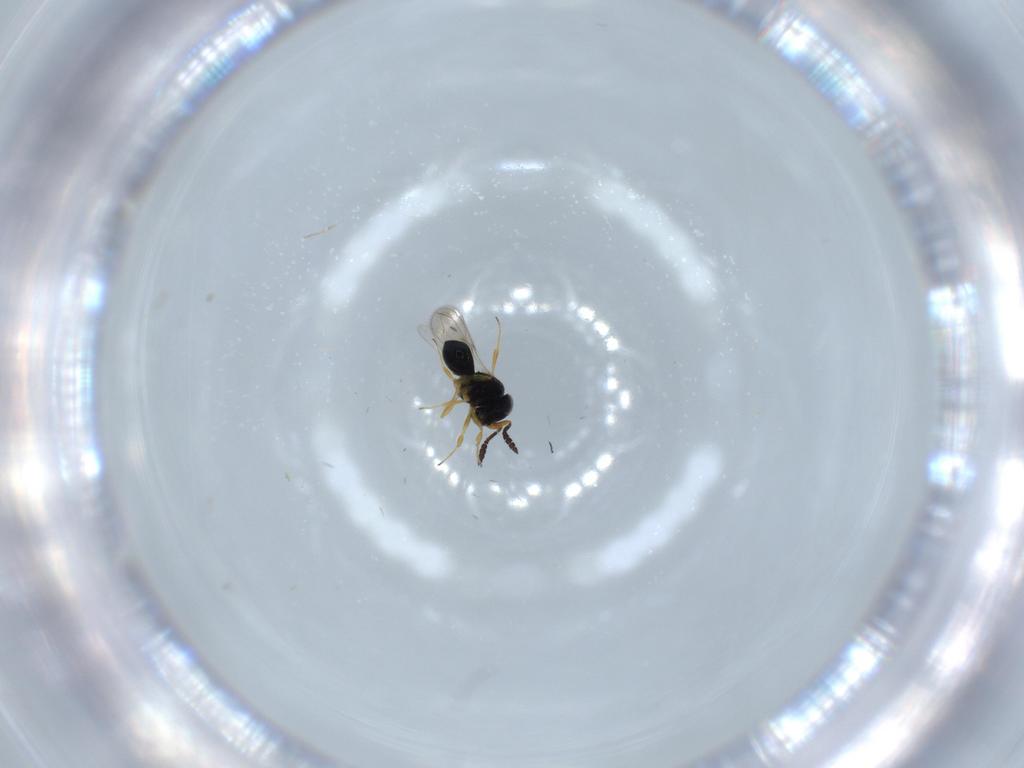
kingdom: Animalia
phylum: Arthropoda
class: Insecta
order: Hymenoptera
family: Scelionidae
